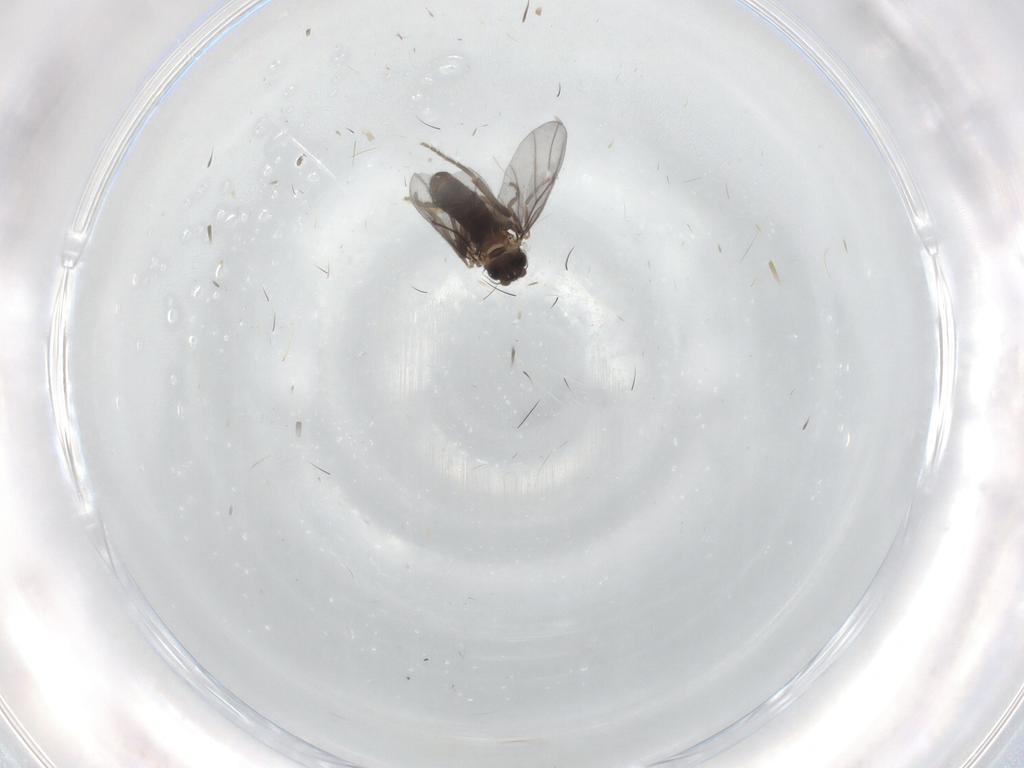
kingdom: Animalia
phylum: Arthropoda
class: Insecta
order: Diptera
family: Phoridae
